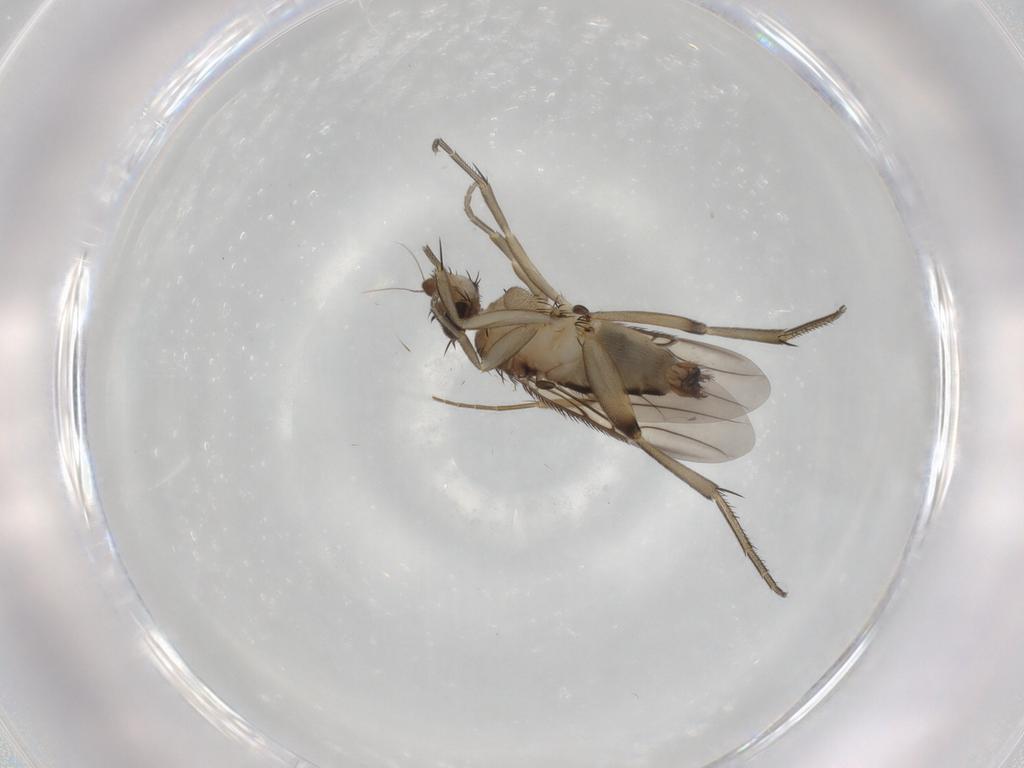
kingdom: Animalia
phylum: Arthropoda
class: Insecta
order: Diptera
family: Phoridae
